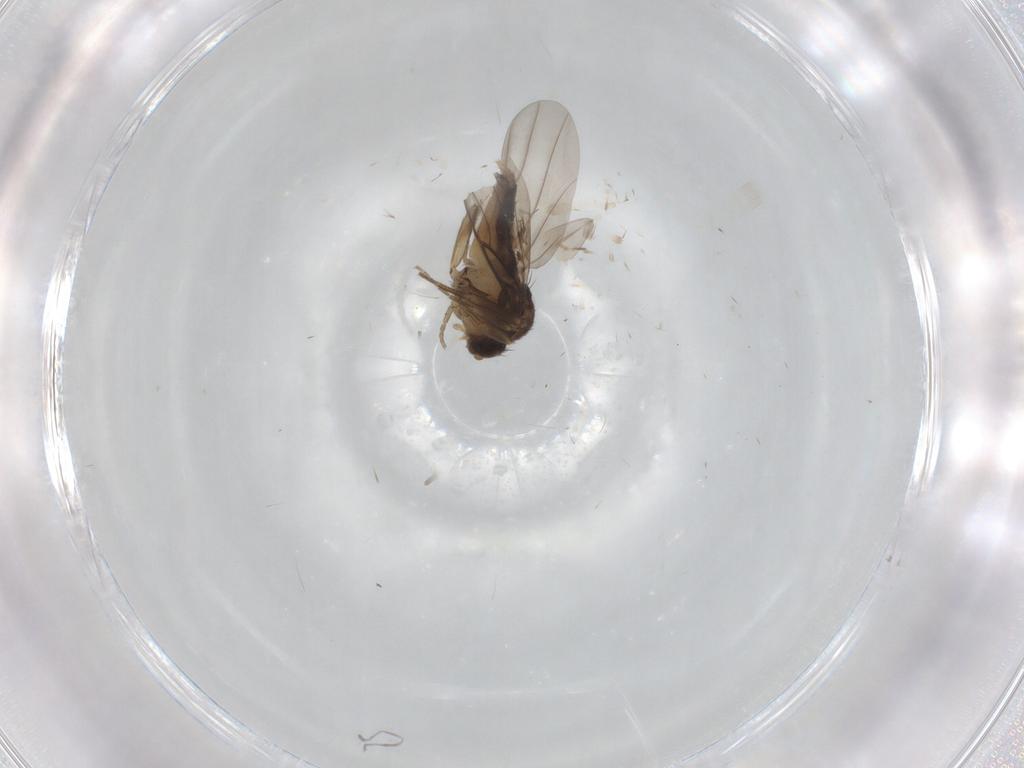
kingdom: Animalia
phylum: Arthropoda
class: Insecta
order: Diptera
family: Phoridae
